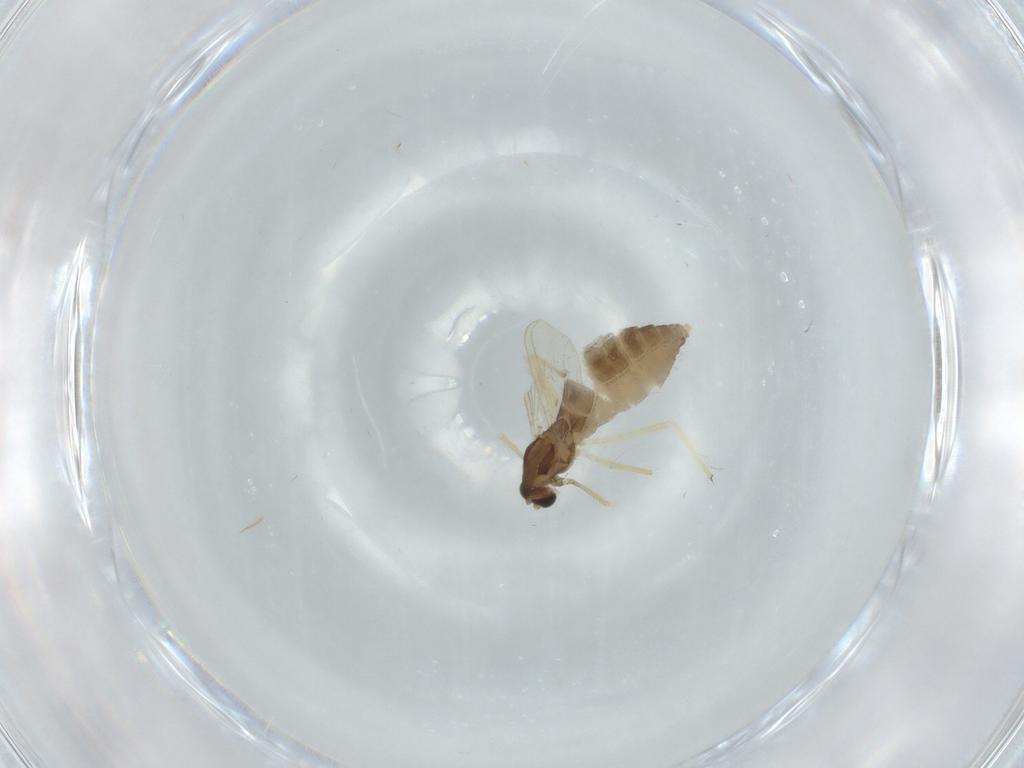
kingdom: Animalia
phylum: Arthropoda
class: Insecta
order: Diptera
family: Chironomidae
